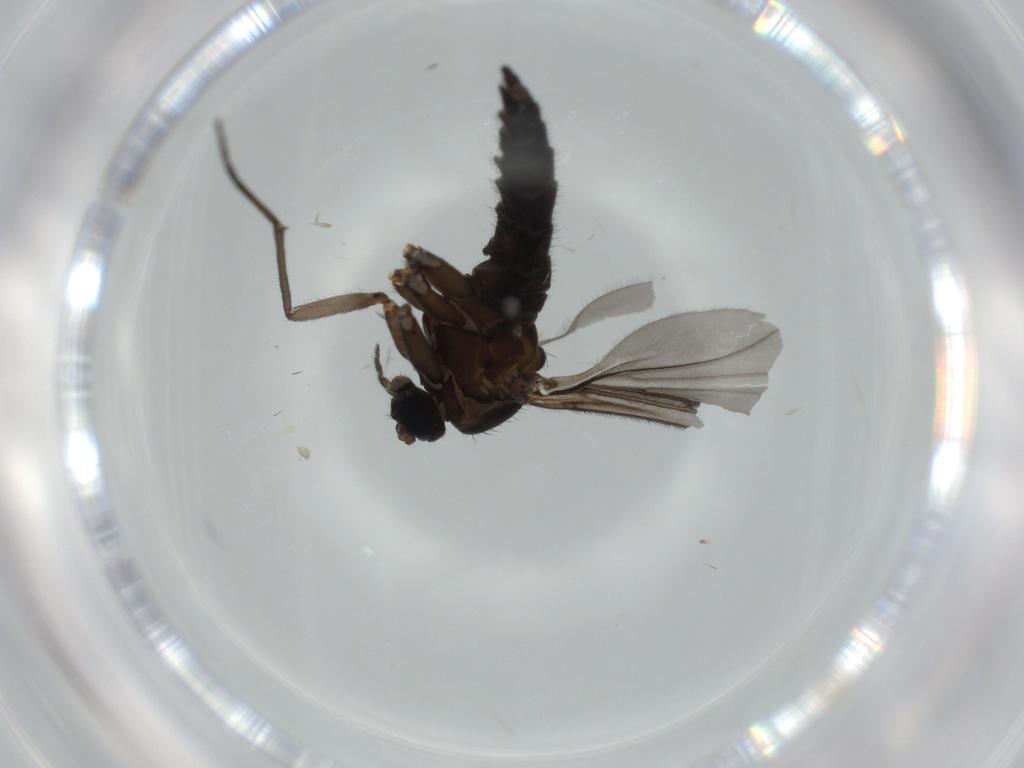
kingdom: Animalia
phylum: Arthropoda
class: Insecta
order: Diptera
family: Sciaridae
